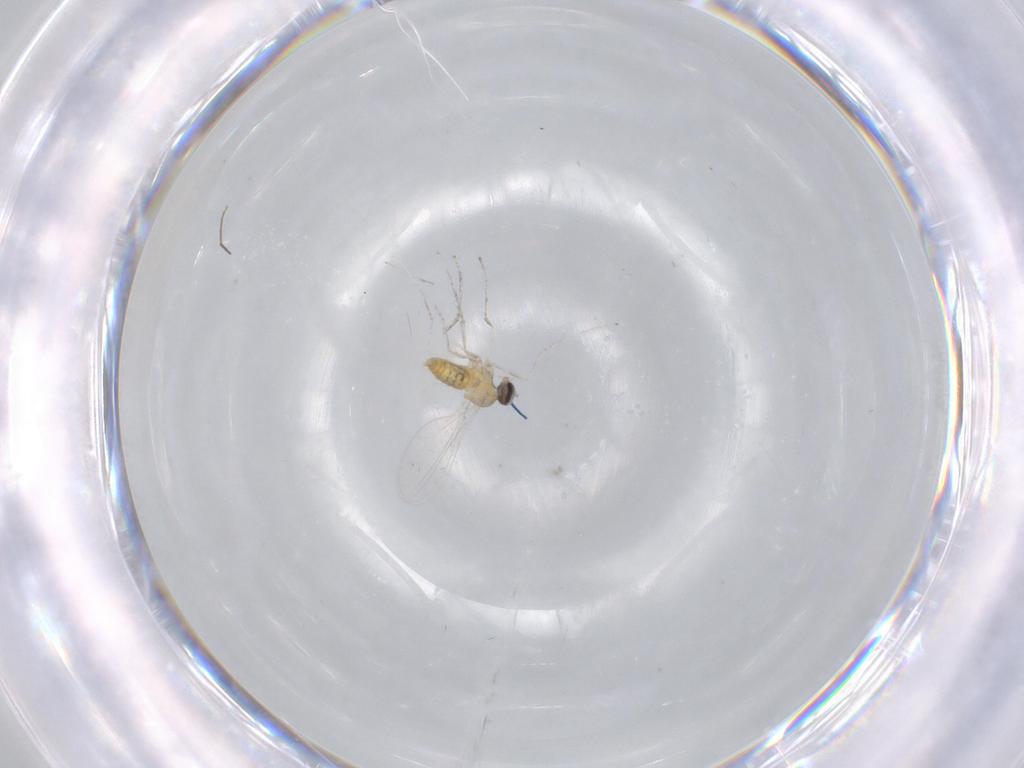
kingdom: Animalia
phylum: Arthropoda
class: Insecta
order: Diptera
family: Chironomidae
